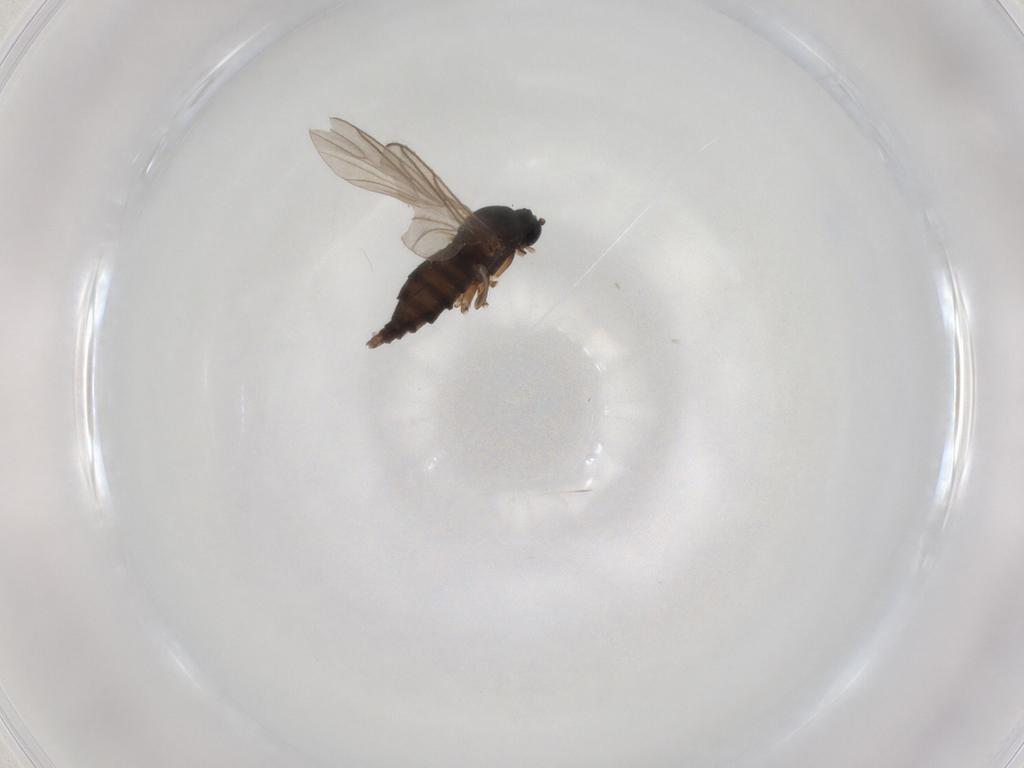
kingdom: Animalia
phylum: Arthropoda
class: Insecta
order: Diptera
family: Sciaridae
